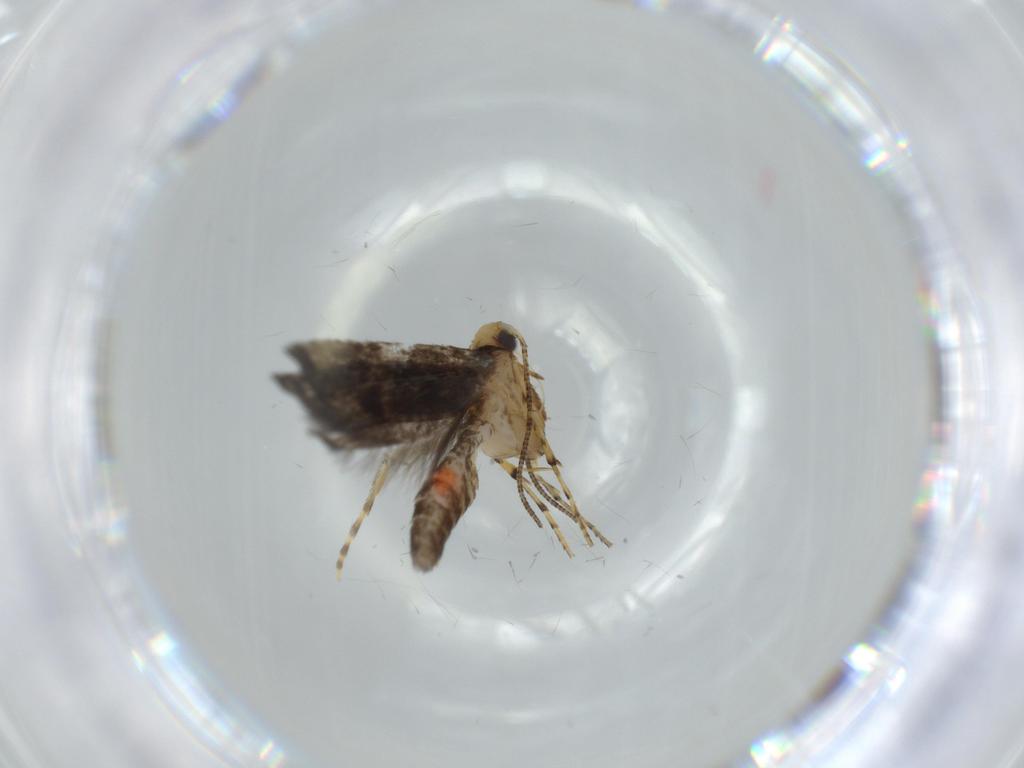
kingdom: Animalia
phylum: Arthropoda
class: Insecta
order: Lepidoptera
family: Argyresthiidae
